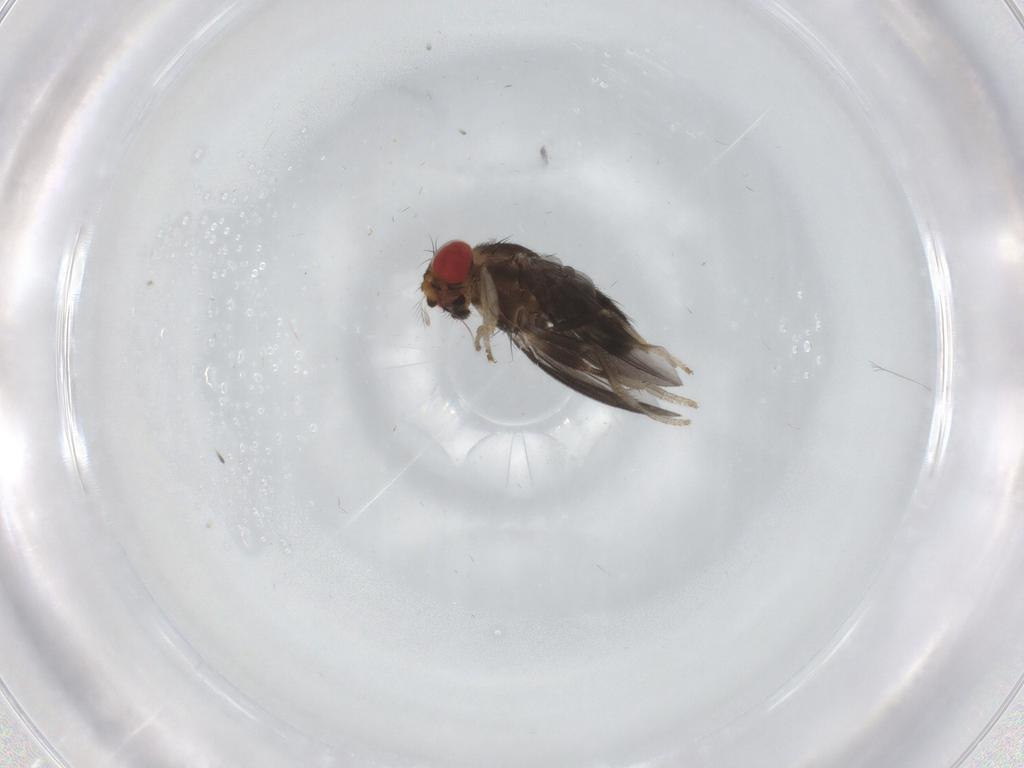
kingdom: Animalia
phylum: Arthropoda
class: Insecta
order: Diptera
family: Drosophilidae
